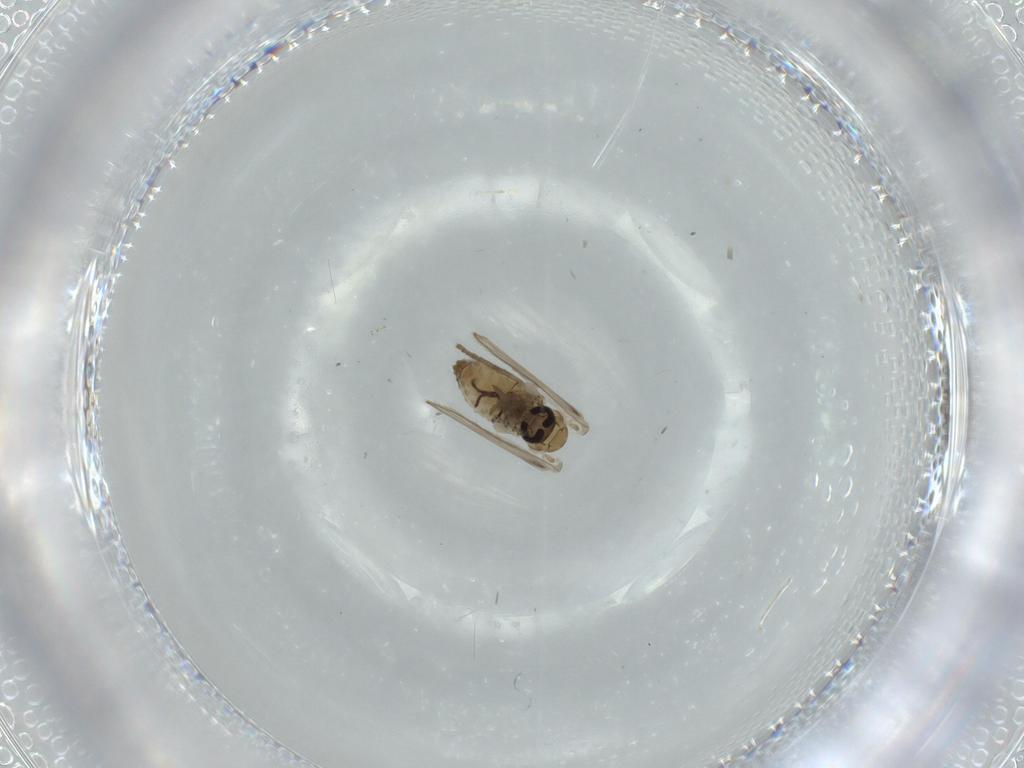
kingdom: Animalia
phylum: Arthropoda
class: Insecta
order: Diptera
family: Psychodidae
